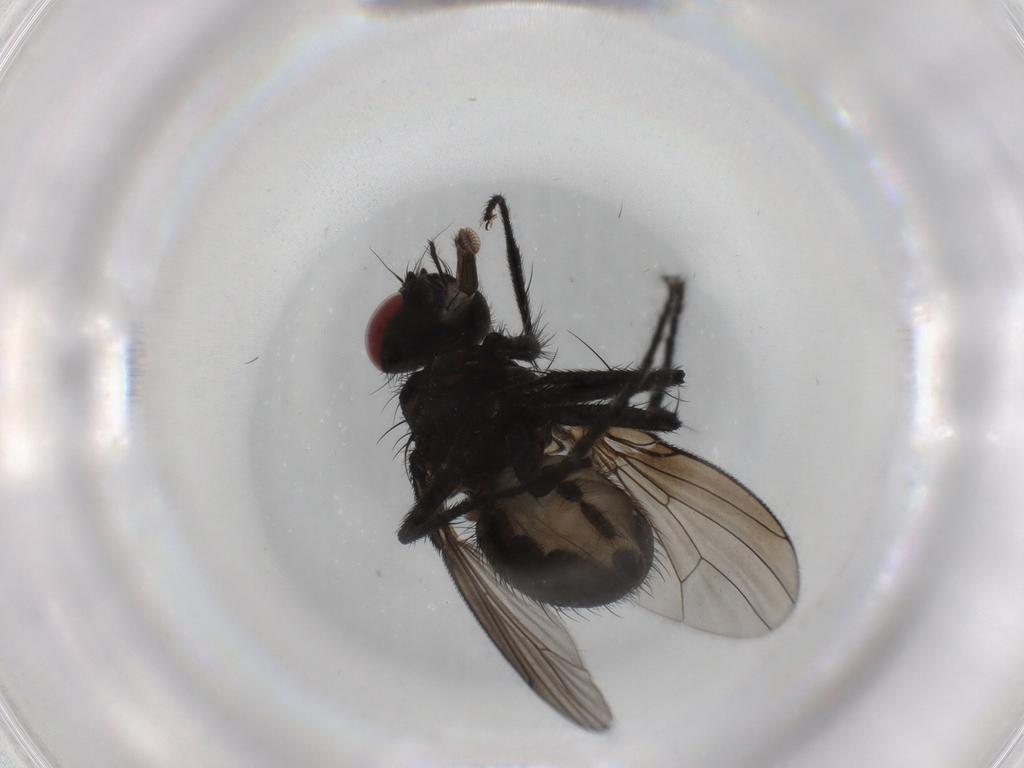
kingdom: Animalia
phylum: Arthropoda
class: Insecta
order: Diptera
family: Muscidae
